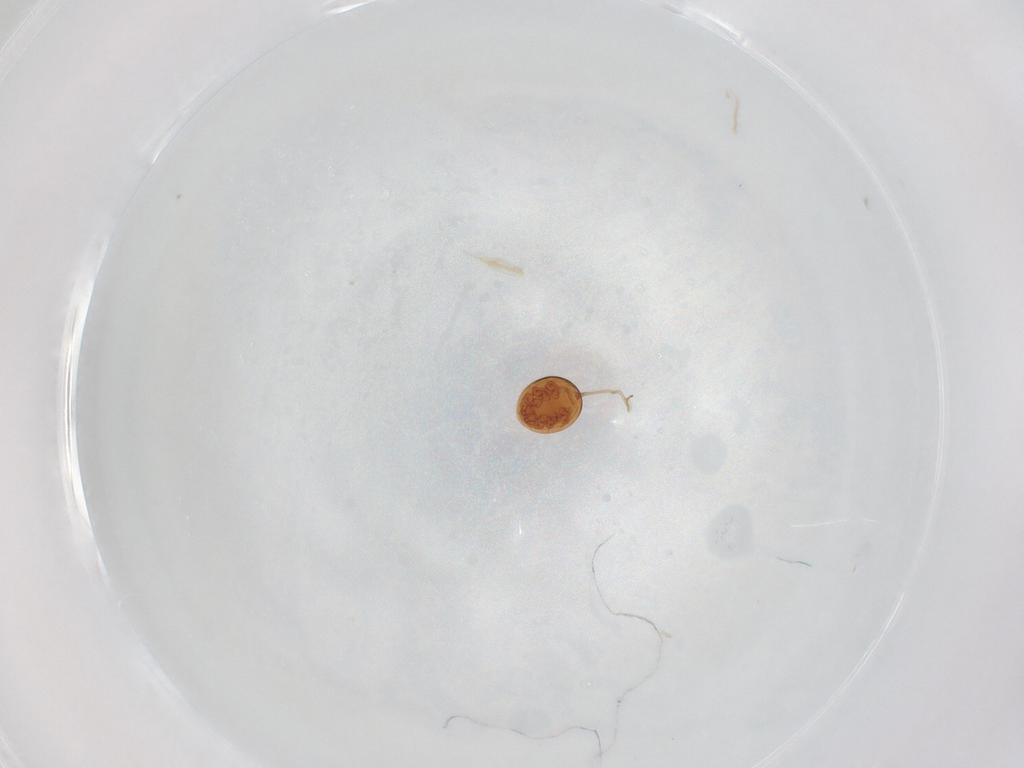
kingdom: Animalia
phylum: Arthropoda
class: Arachnida
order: Mesostigmata
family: Uropodidae
